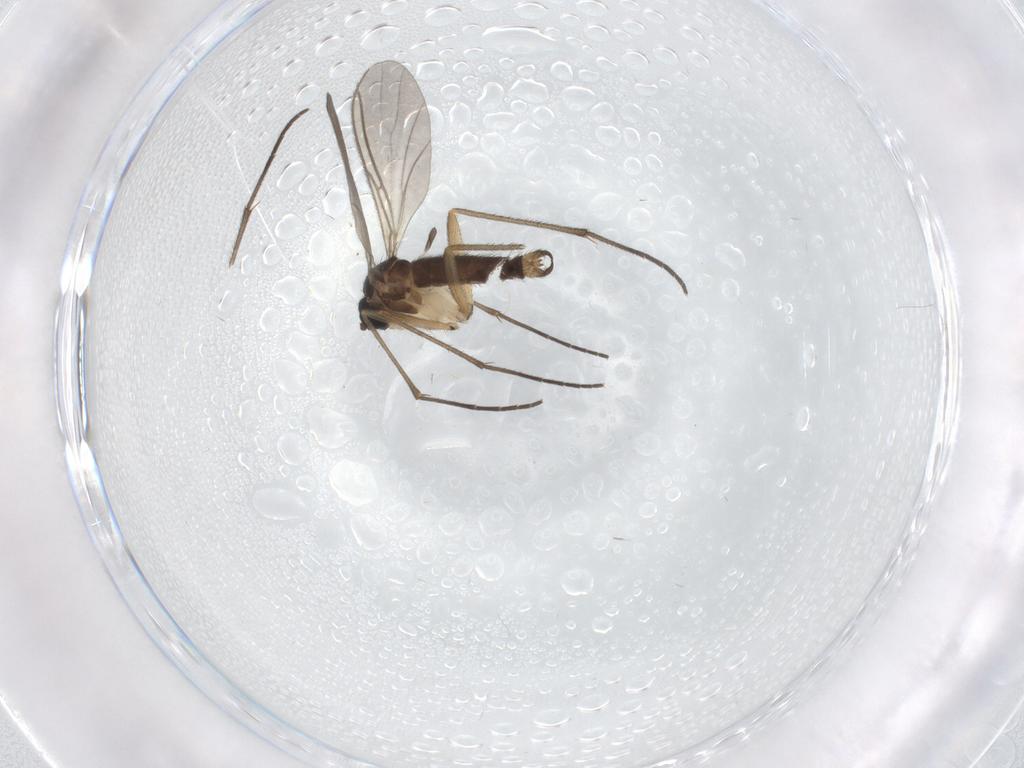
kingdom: Animalia
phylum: Arthropoda
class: Insecta
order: Diptera
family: Sciaridae
